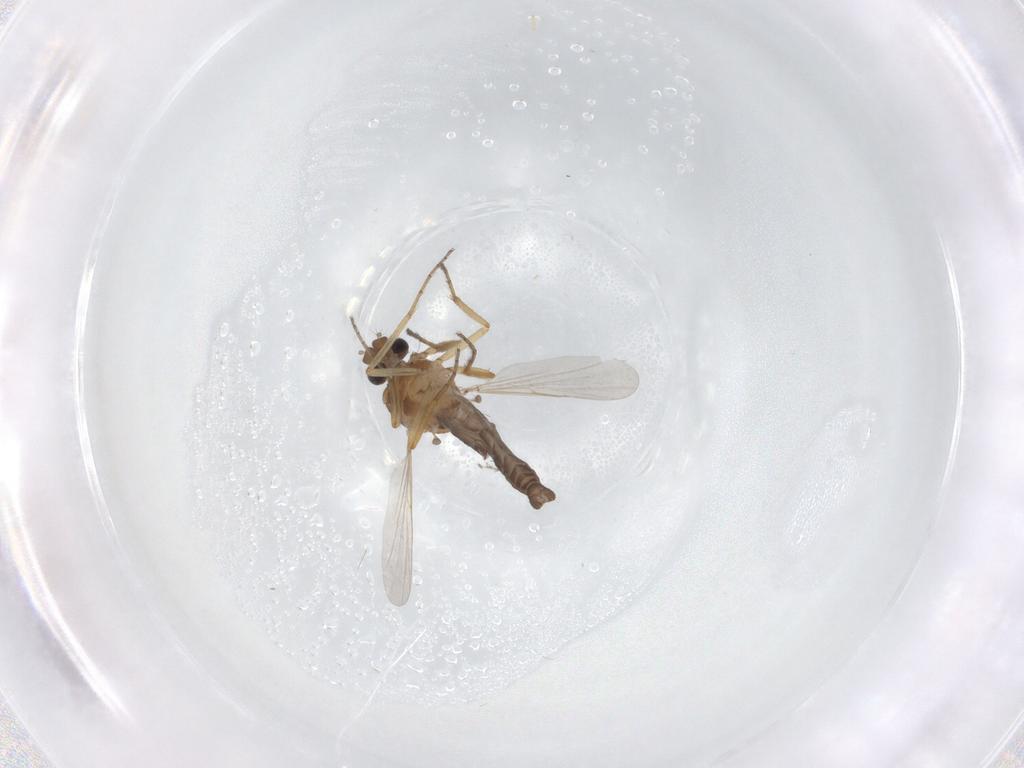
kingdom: Animalia
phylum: Arthropoda
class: Insecta
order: Diptera
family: Ceratopogonidae
